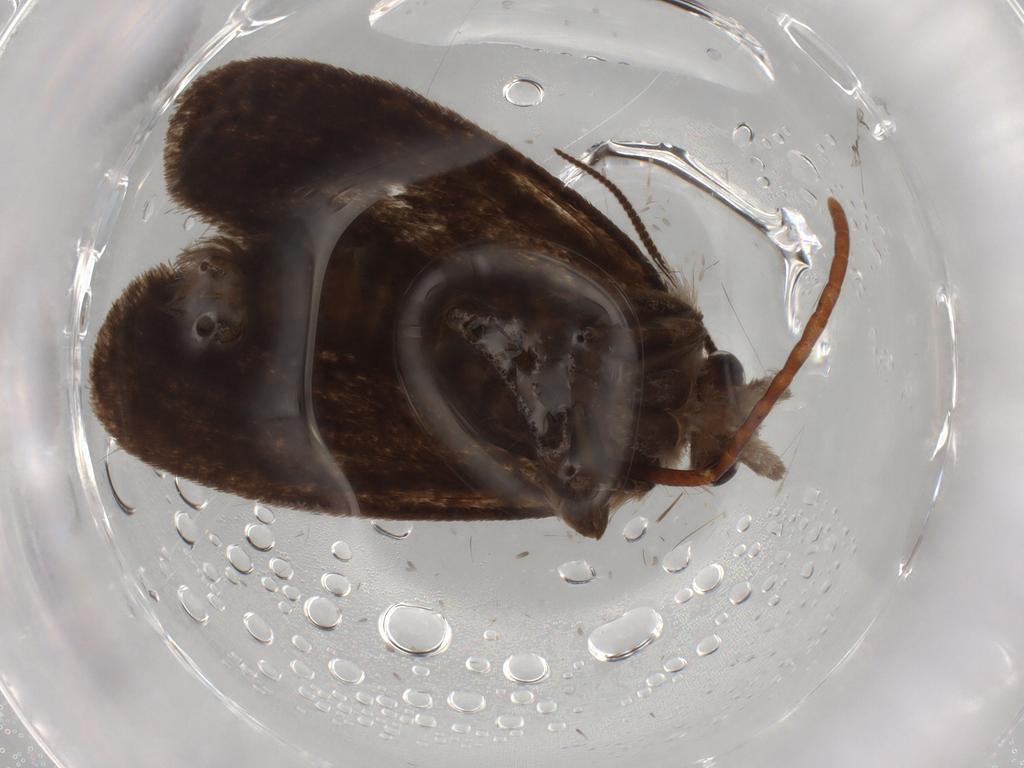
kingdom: Animalia
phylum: Arthropoda
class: Insecta
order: Lepidoptera
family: Tineidae
